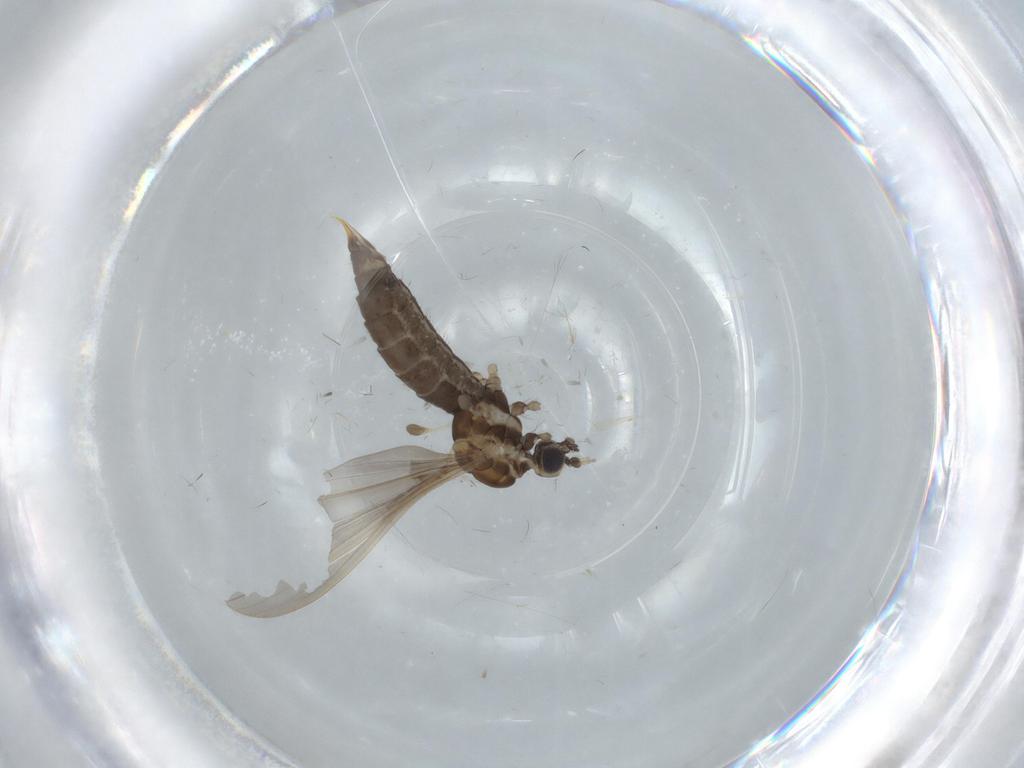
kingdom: Animalia
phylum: Arthropoda
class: Insecta
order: Diptera
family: Limoniidae
